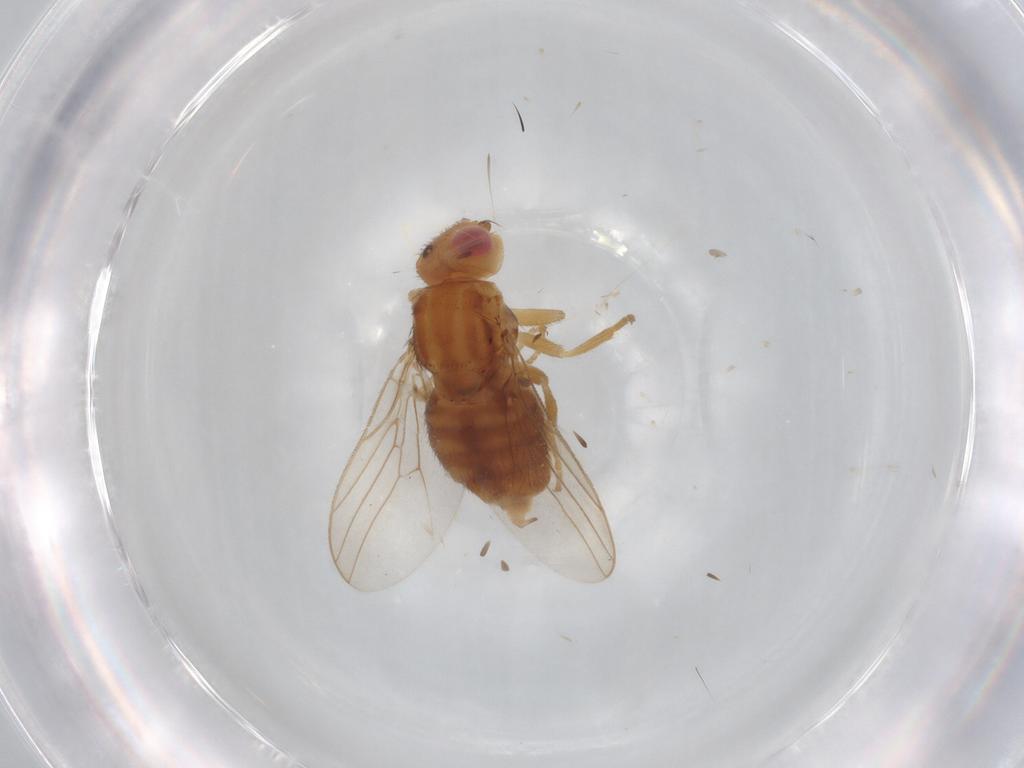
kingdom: Animalia
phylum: Arthropoda
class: Insecta
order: Diptera
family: Chloropidae
